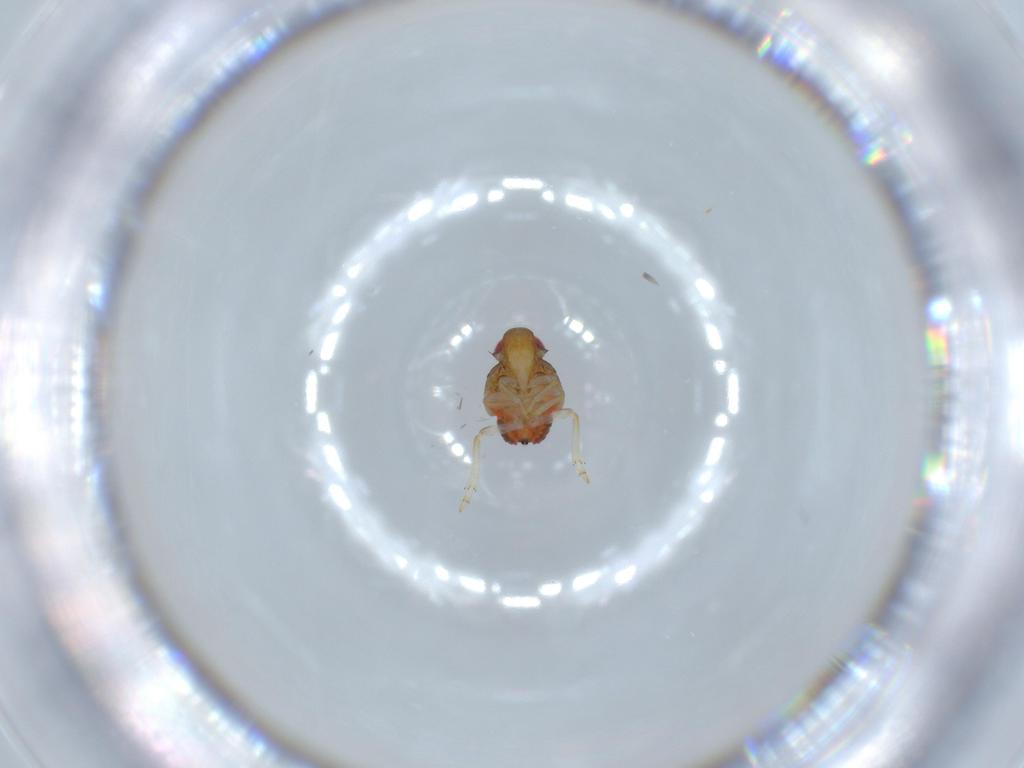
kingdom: Animalia
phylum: Arthropoda
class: Insecta
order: Hemiptera
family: Issidae
